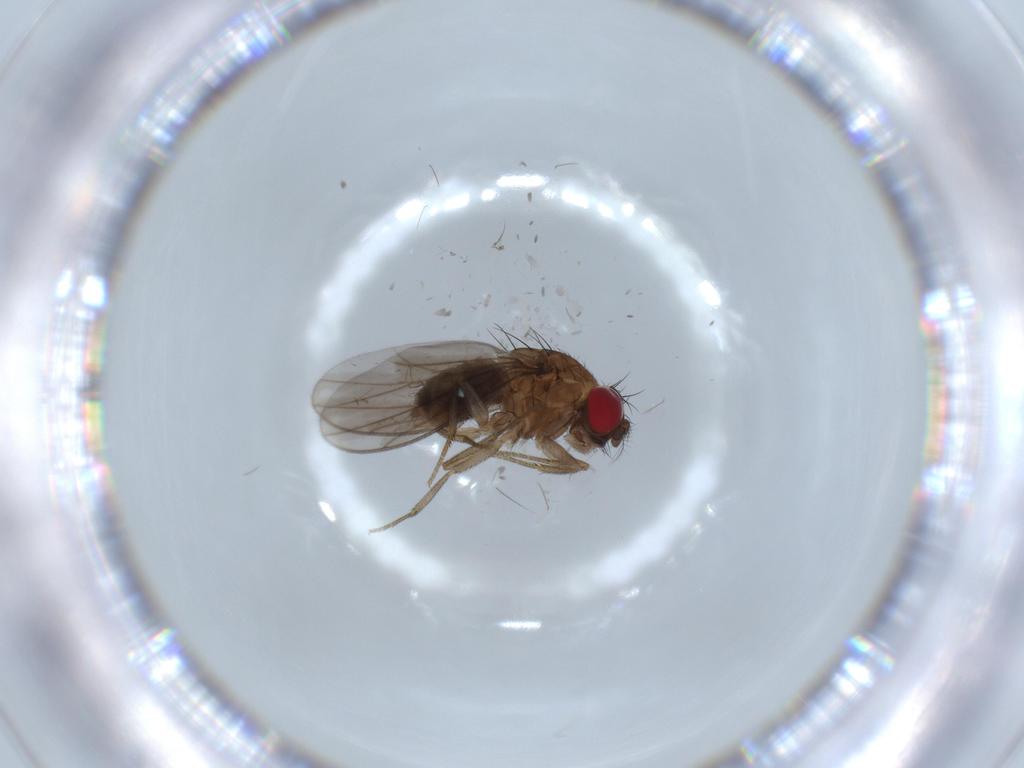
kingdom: Animalia
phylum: Arthropoda
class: Insecta
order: Diptera
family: Drosophilidae
